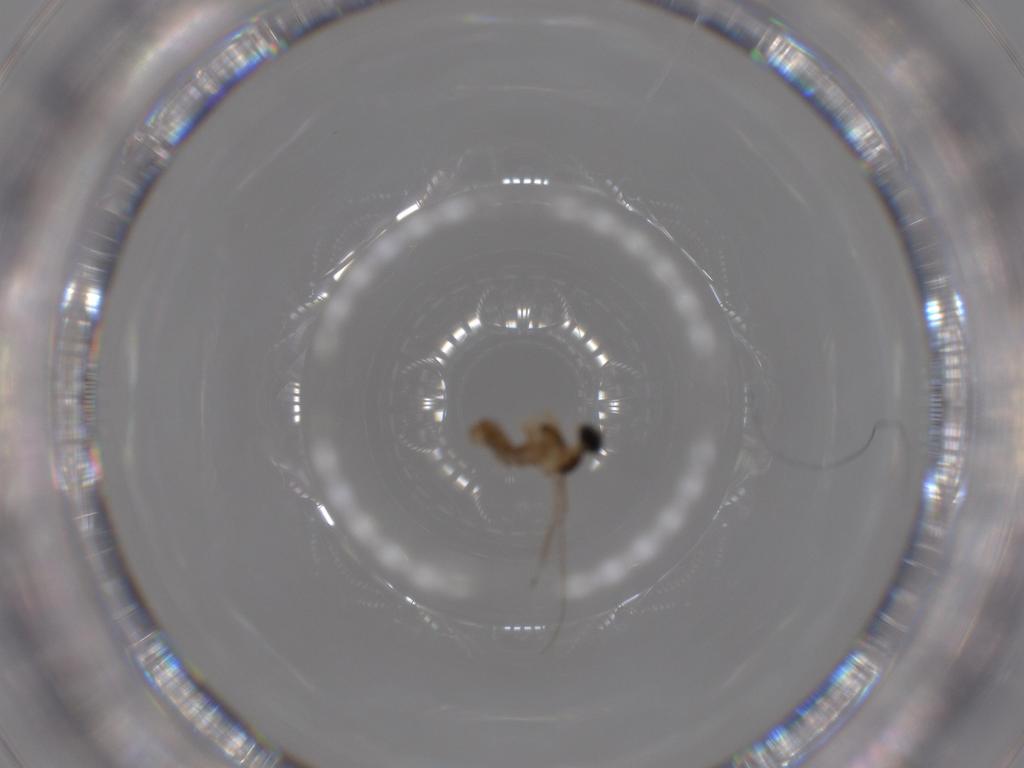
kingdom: Animalia
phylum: Arthropoda
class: Insecta
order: Diptera
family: Cecidomyiidae
